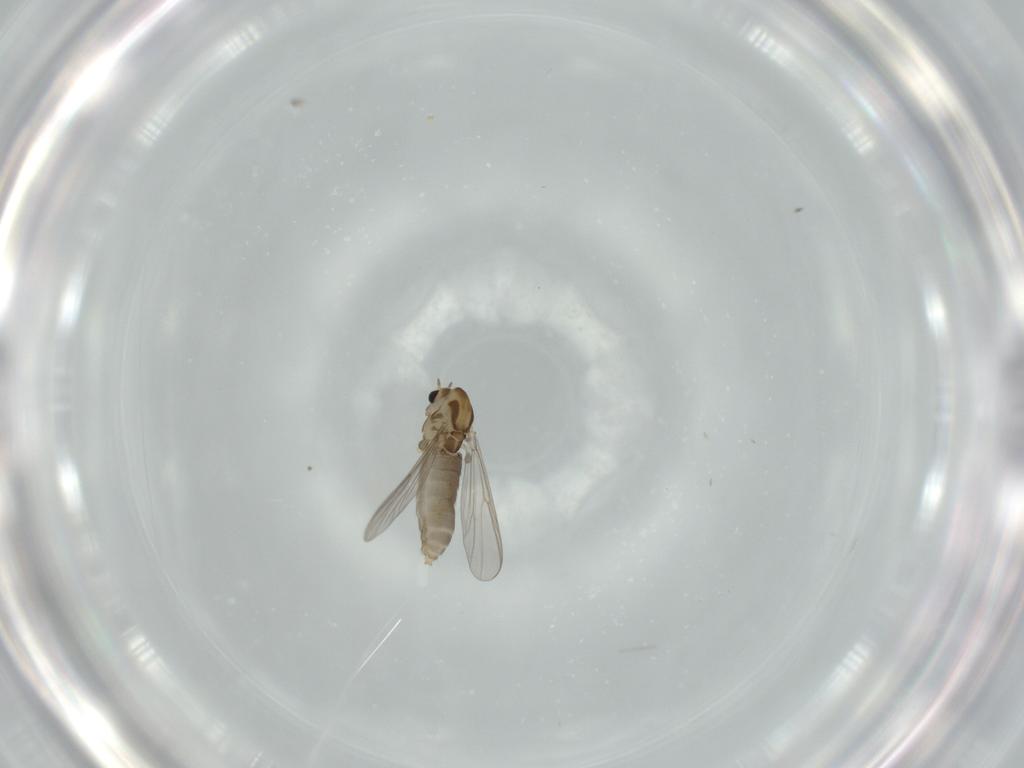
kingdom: Animalia
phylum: Arthropoda
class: Insecta
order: Diptera
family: Chironomidae
